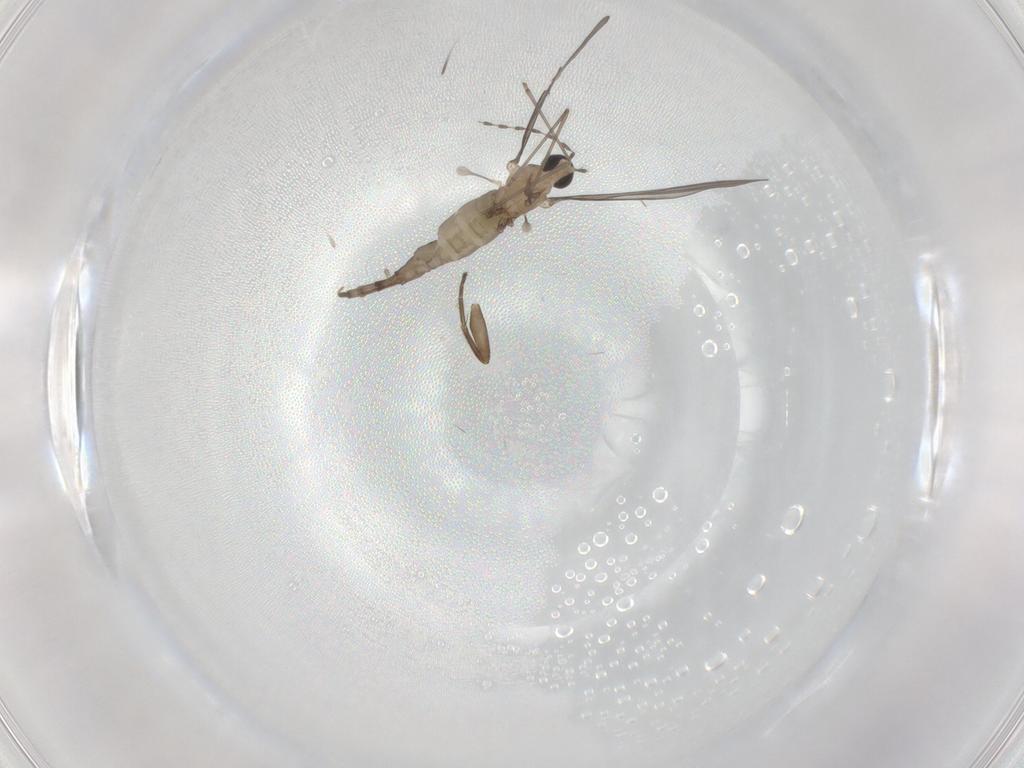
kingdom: Animalia
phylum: Arthropoda
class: Insecta
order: Diptera
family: Cecidomyiidae
